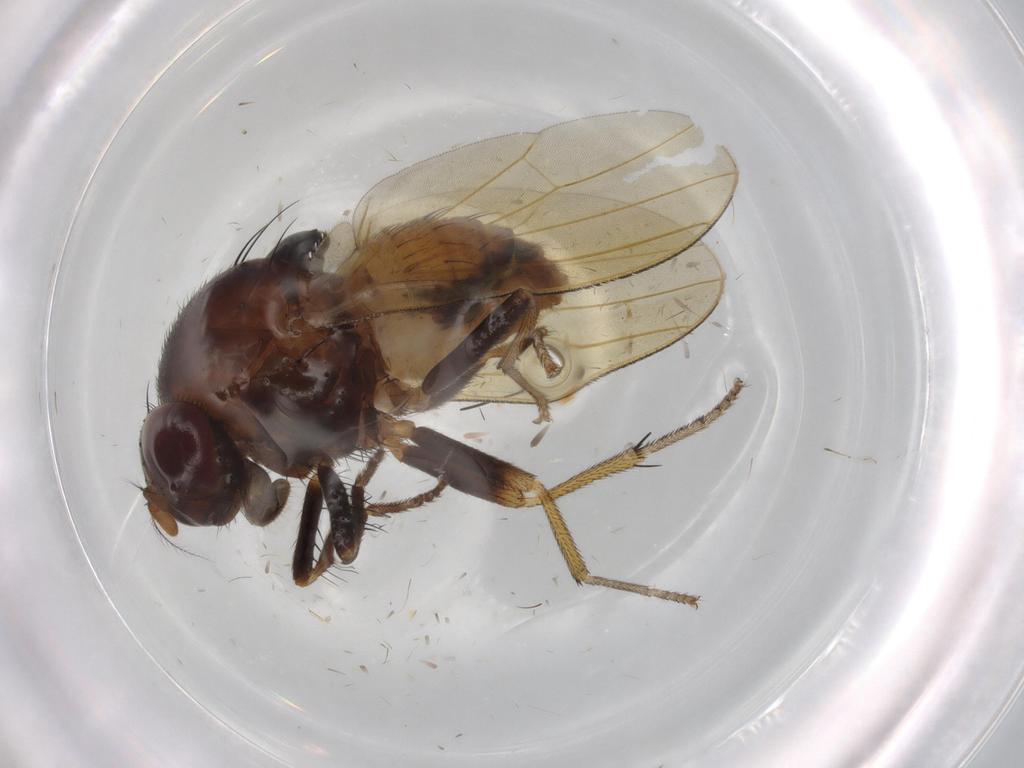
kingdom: Animalia
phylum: Arthropoda
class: Insecta
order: Diptera
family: Lauxaniidae
